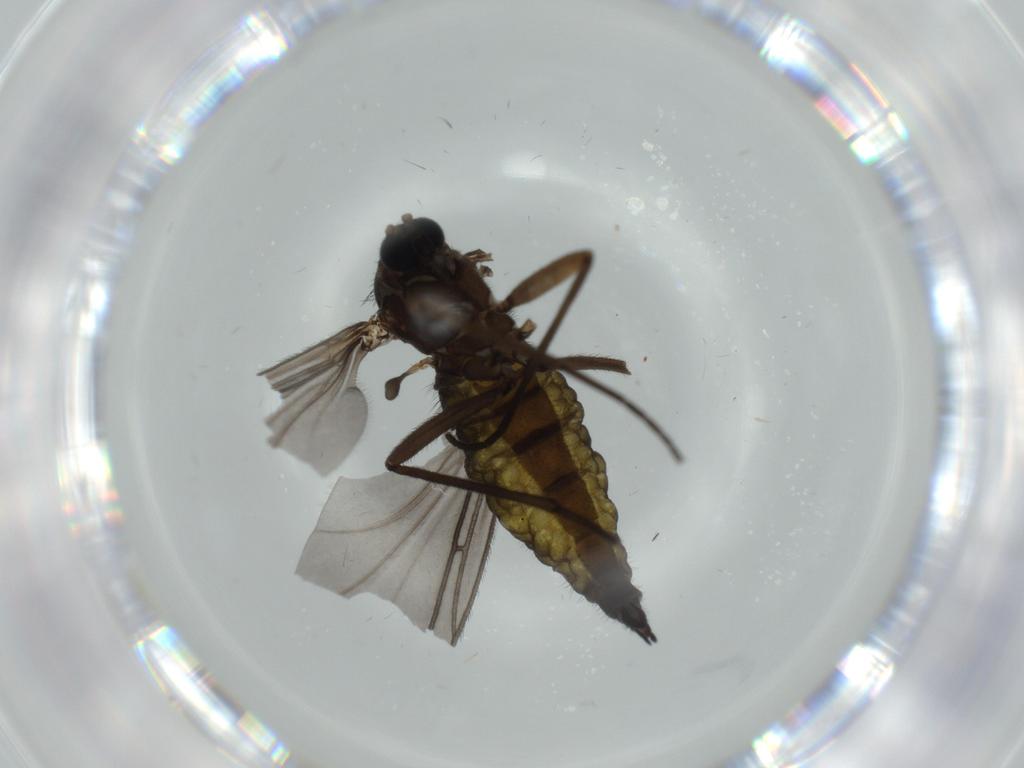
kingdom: Animalia
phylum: Arthropoda
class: Insecta
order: Diptera
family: Sciaridae
